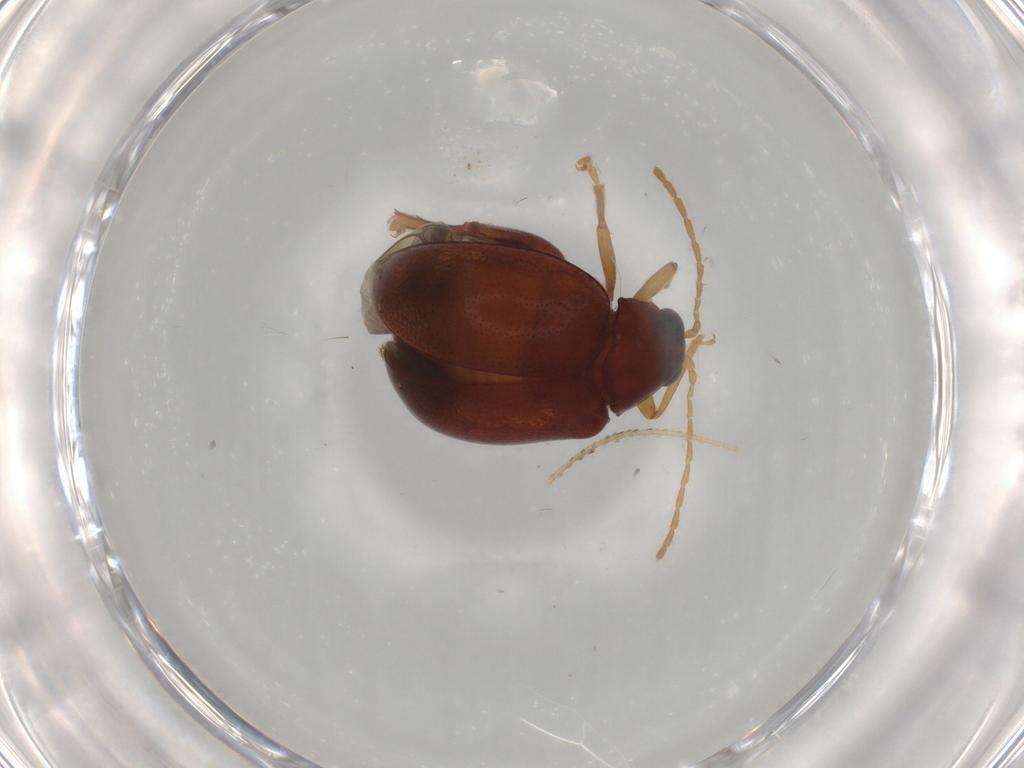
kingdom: Animalia
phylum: Arthropoda
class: Insecta
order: Coleoptera
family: Chrysomelidae
